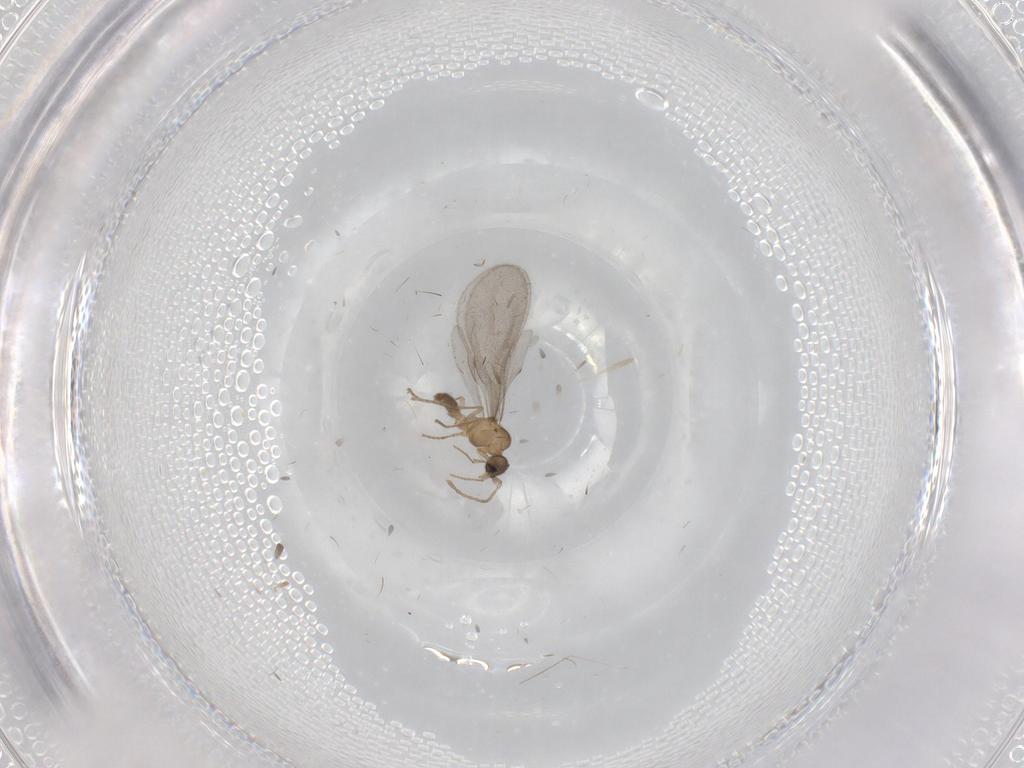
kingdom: Animalia
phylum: Arthropoda
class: Insecta
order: Hymenoptera
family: Formicidae
